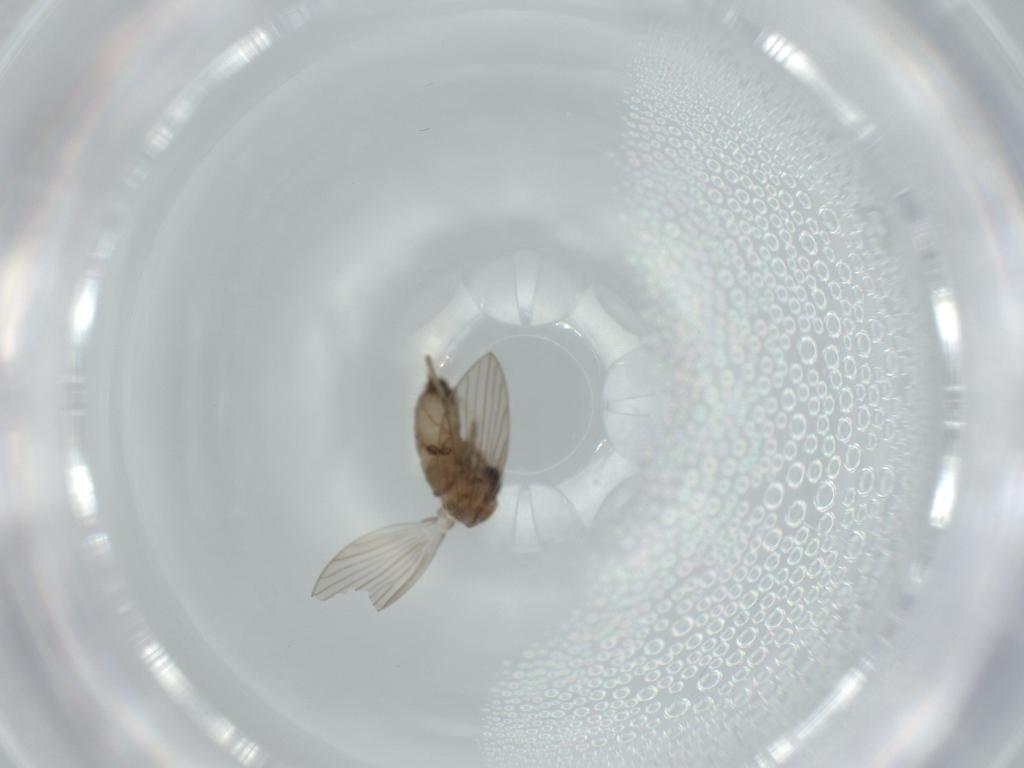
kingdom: Animalia
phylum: Arthropoda
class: Insecta
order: Diptera
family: Psychodidae
